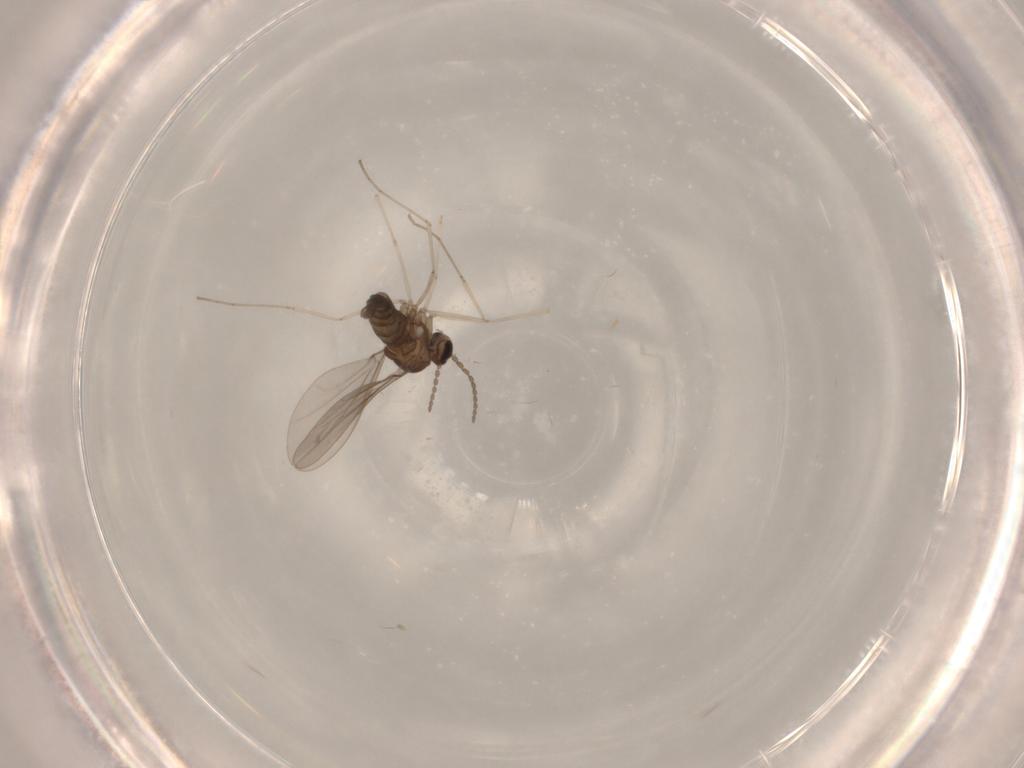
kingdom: Animalia
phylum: Arthropoda
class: Insecta
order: Diptera
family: Cecidomyiidae
